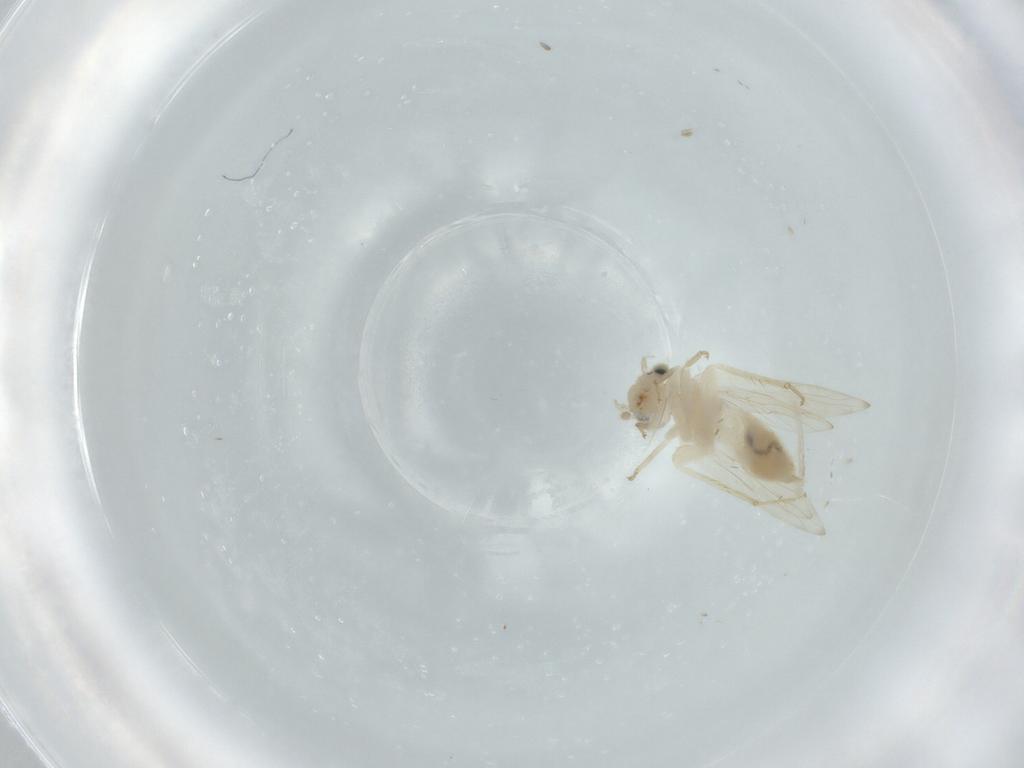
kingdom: Animalia
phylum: Arthropoda
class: Insecta
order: Psocodea
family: Lepidopsocidae
